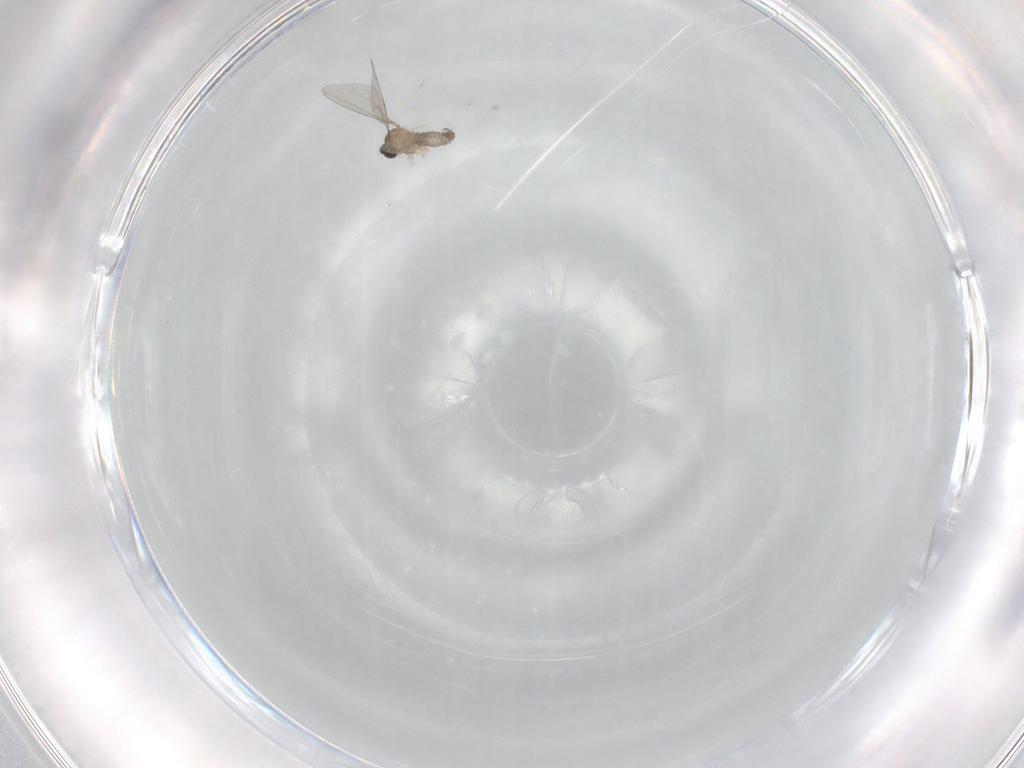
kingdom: Animalia
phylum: Arthropoda
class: Insecta
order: Diptera
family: Cecidomyiidae
